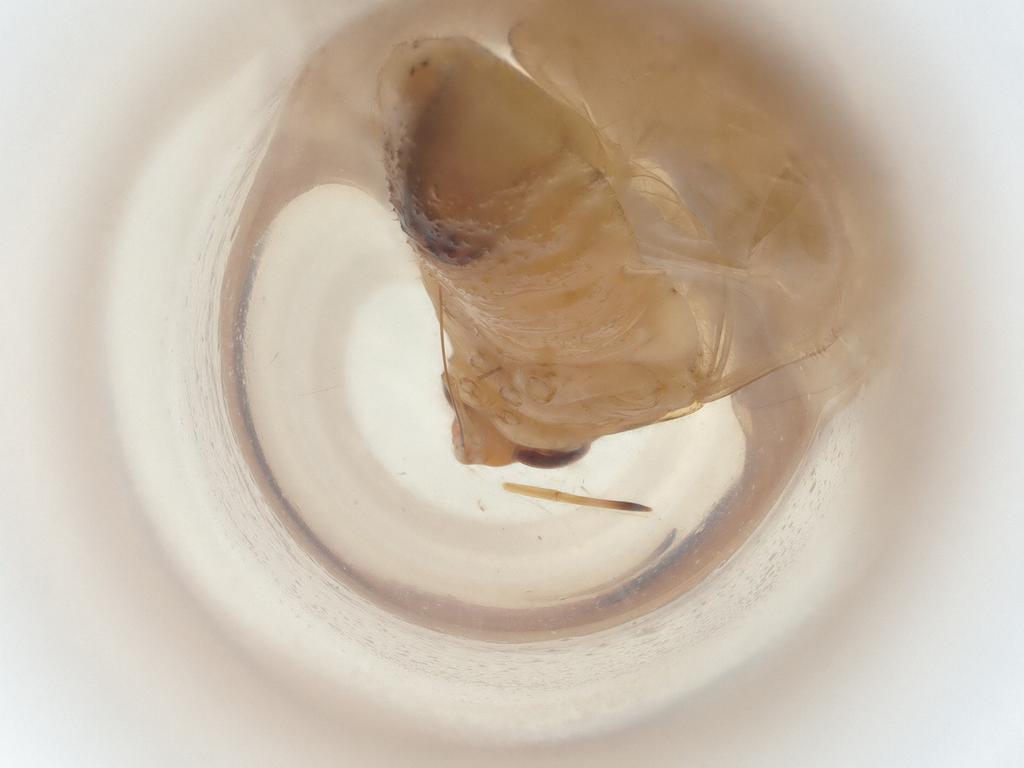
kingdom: Animalia
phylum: Arthropoda
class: Insecta
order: Hemiptera
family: Miridae
